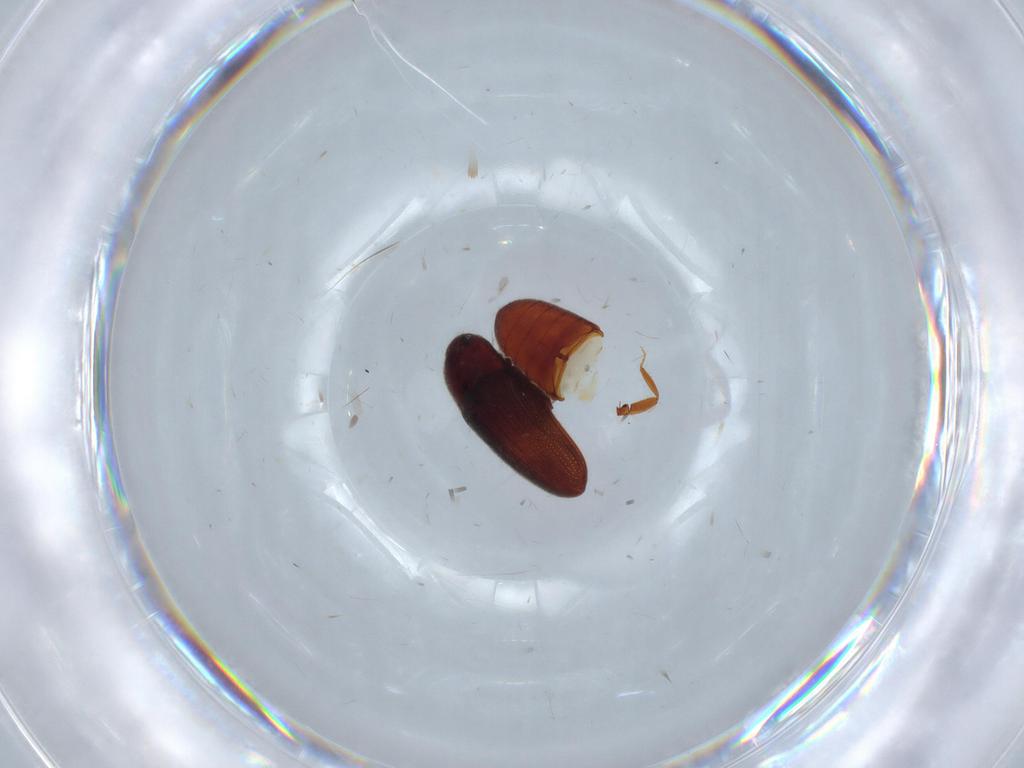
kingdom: Animalia
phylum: Arthropoda
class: Insecta
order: Coleoptera
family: Throscidae
